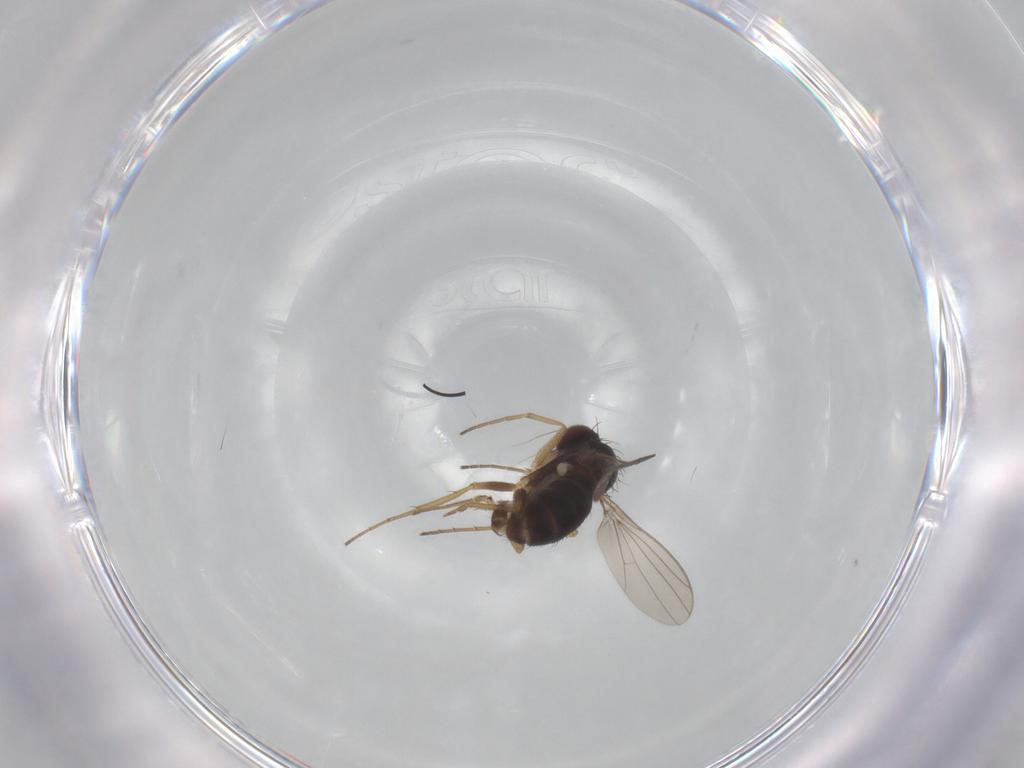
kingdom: Animalia
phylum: Arthropoda
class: Insecta
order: Diptera
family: Dolichopodidae
